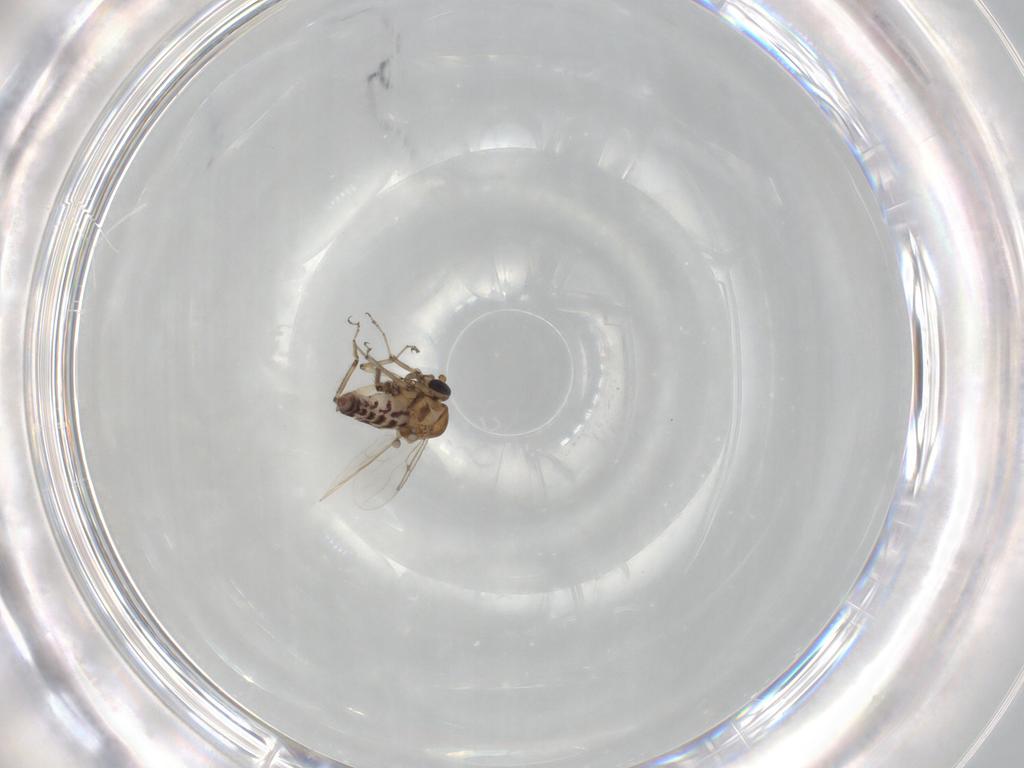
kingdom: Animalia
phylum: Arthropoda
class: Insecta
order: Diptera
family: Ceratopogonidae
